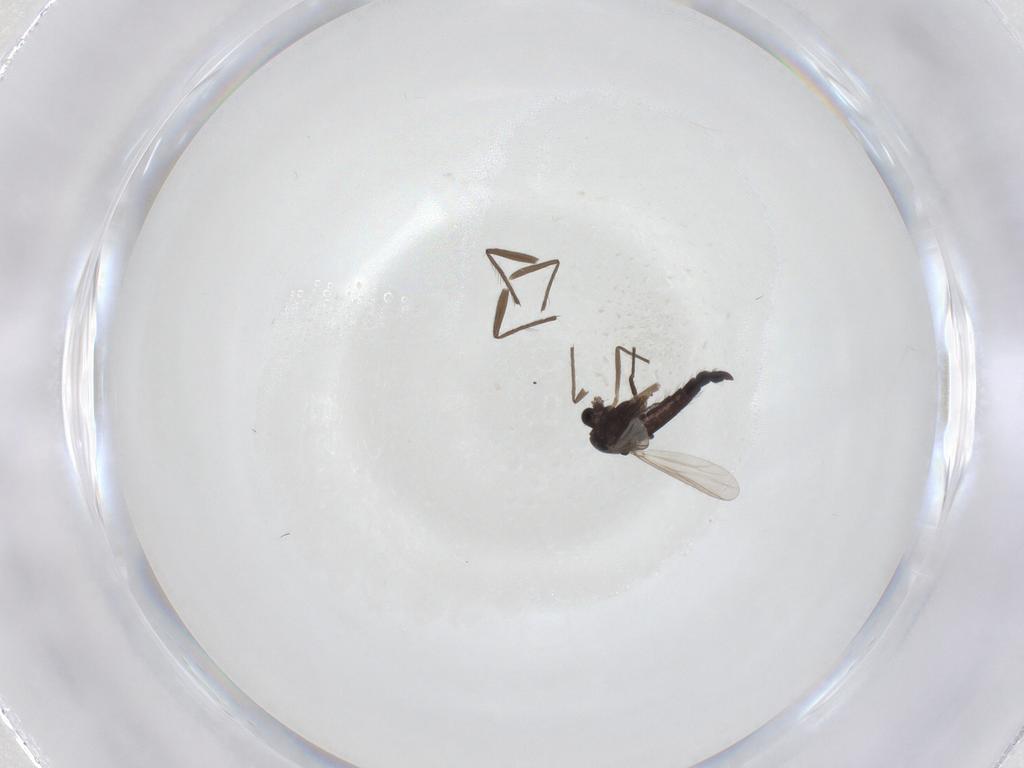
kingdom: Animalia
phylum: Arthropoda
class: Insecta
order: Diptera
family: Chironomidae
